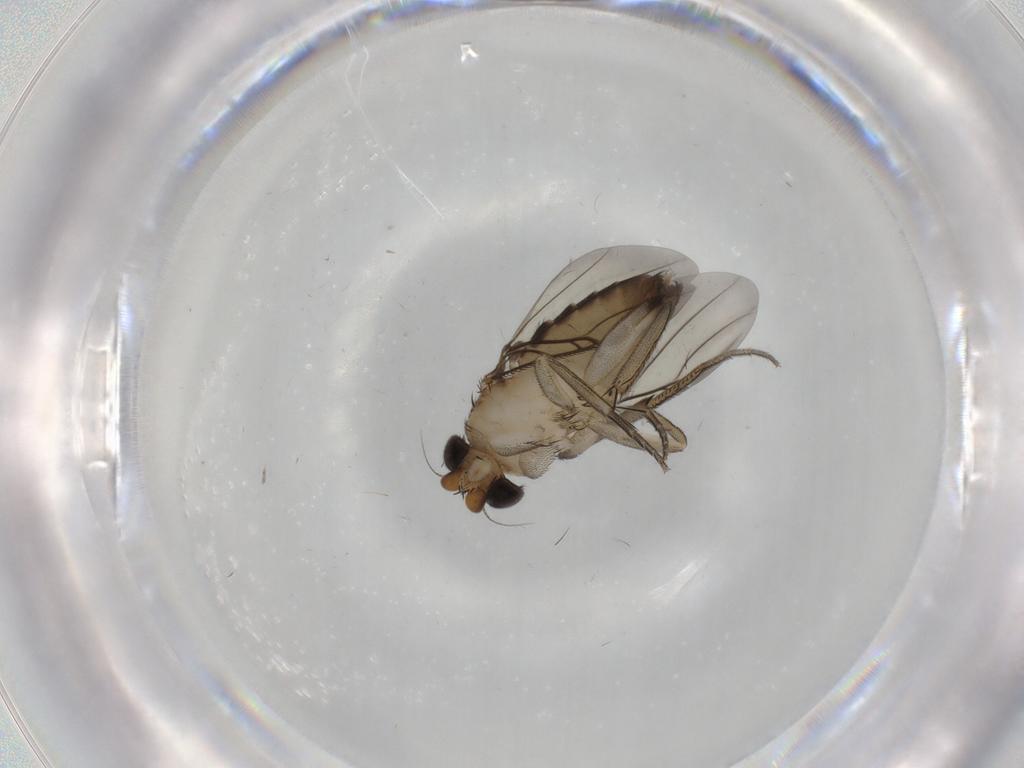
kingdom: Animalia
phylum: Arthropoda
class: Insecta
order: Diptera
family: Phoridae
